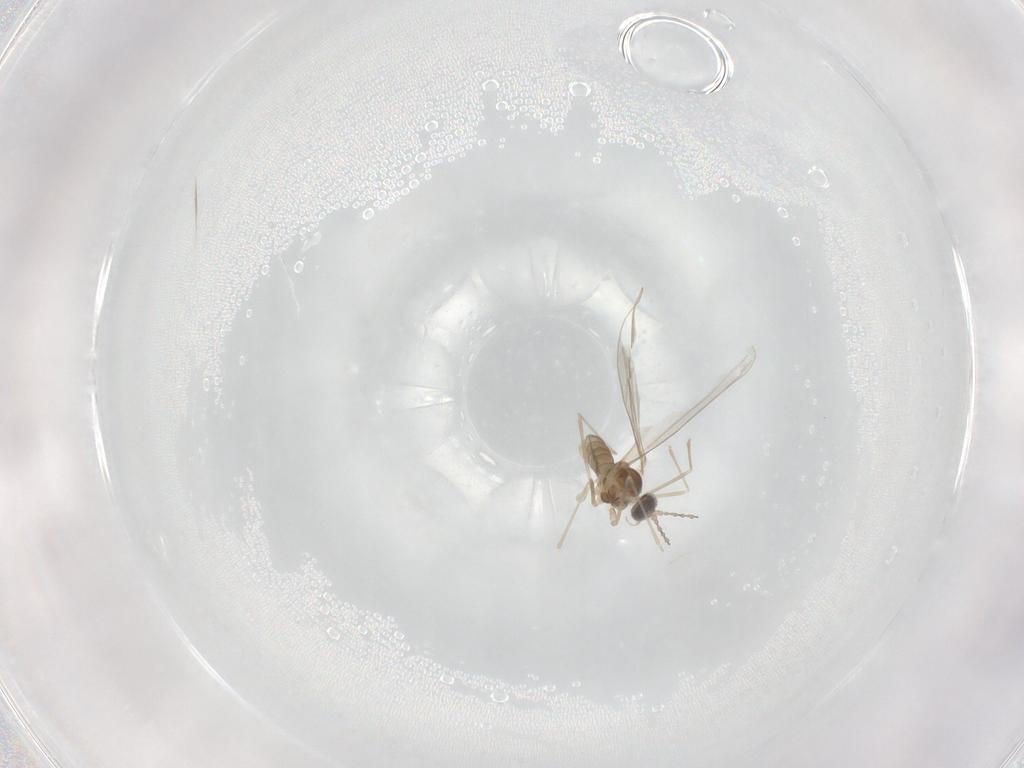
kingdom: Animalia
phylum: Arthropoda
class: Insecta
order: Diptera
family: Cecidomyiidae
